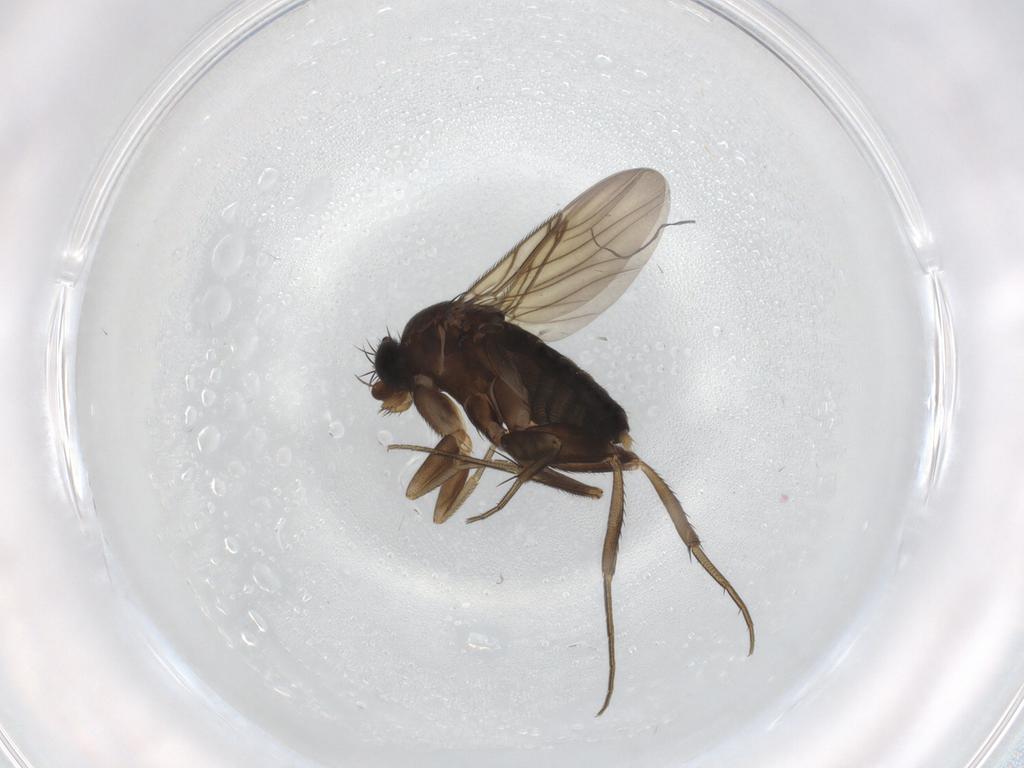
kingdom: Animalia
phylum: Arthropoda
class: Insecta
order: Diptera
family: Phoridae
